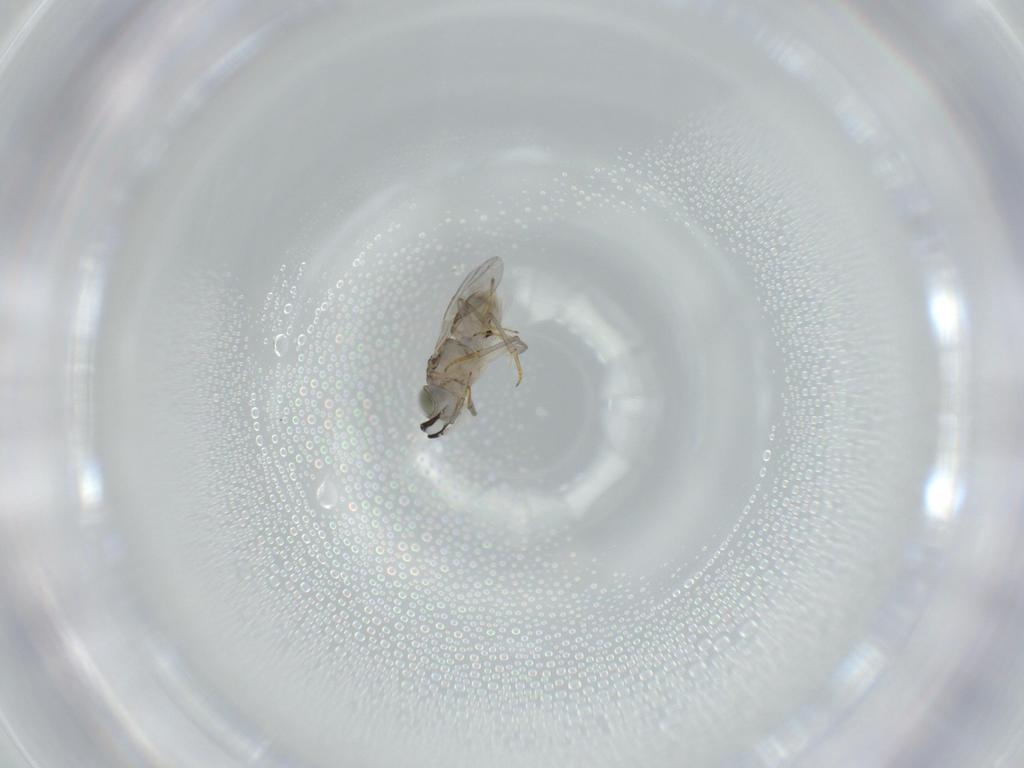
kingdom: Animalia
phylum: Arthropoda
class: Insecta
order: Hymenoptera
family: Encyrtidae
